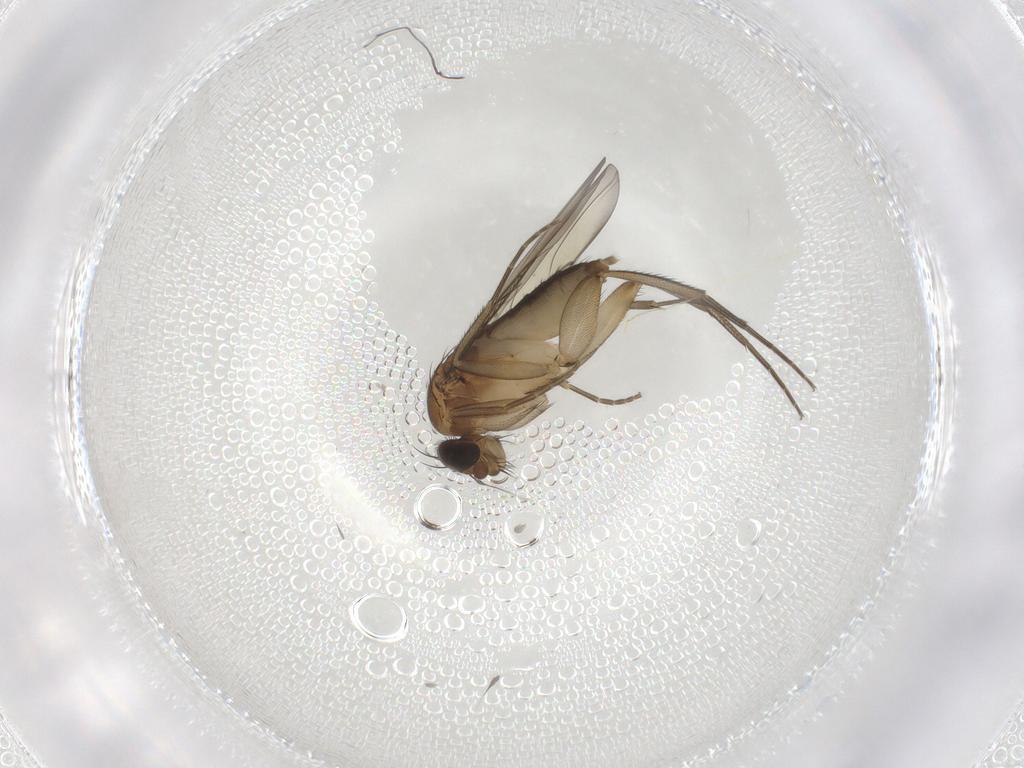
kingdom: Animalia
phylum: Arthropoda
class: Insecta
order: Diptera
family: Phoridae
